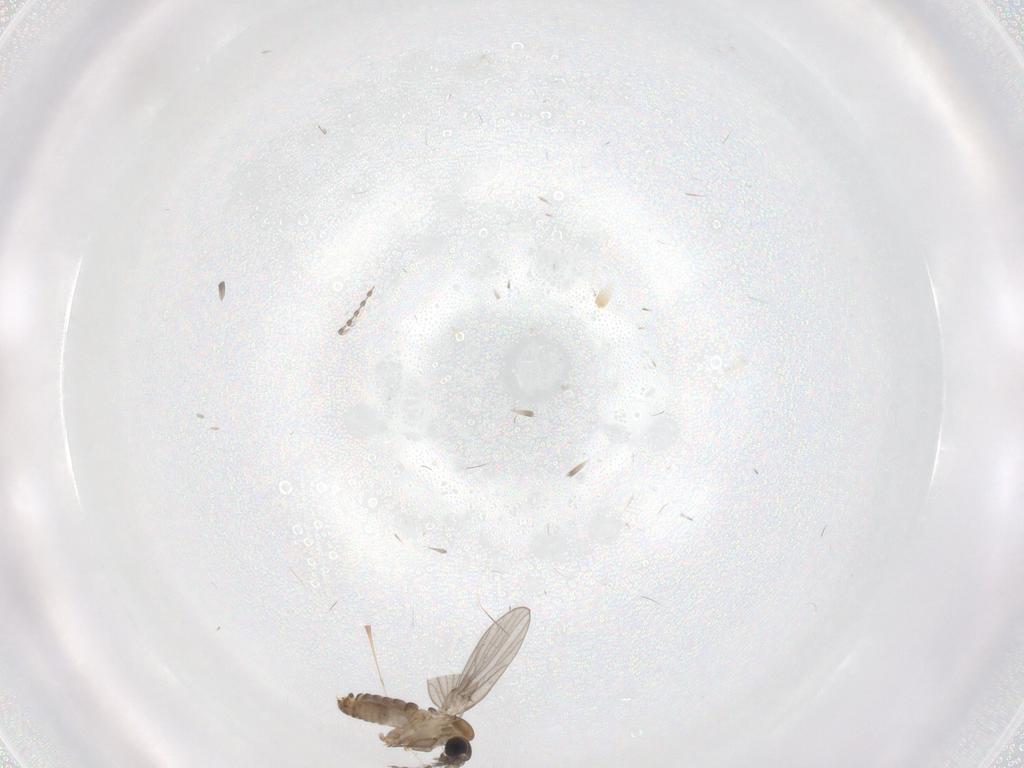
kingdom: Animalia
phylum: Arthropoda
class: Insecta
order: Diptera
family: Psychodidae
